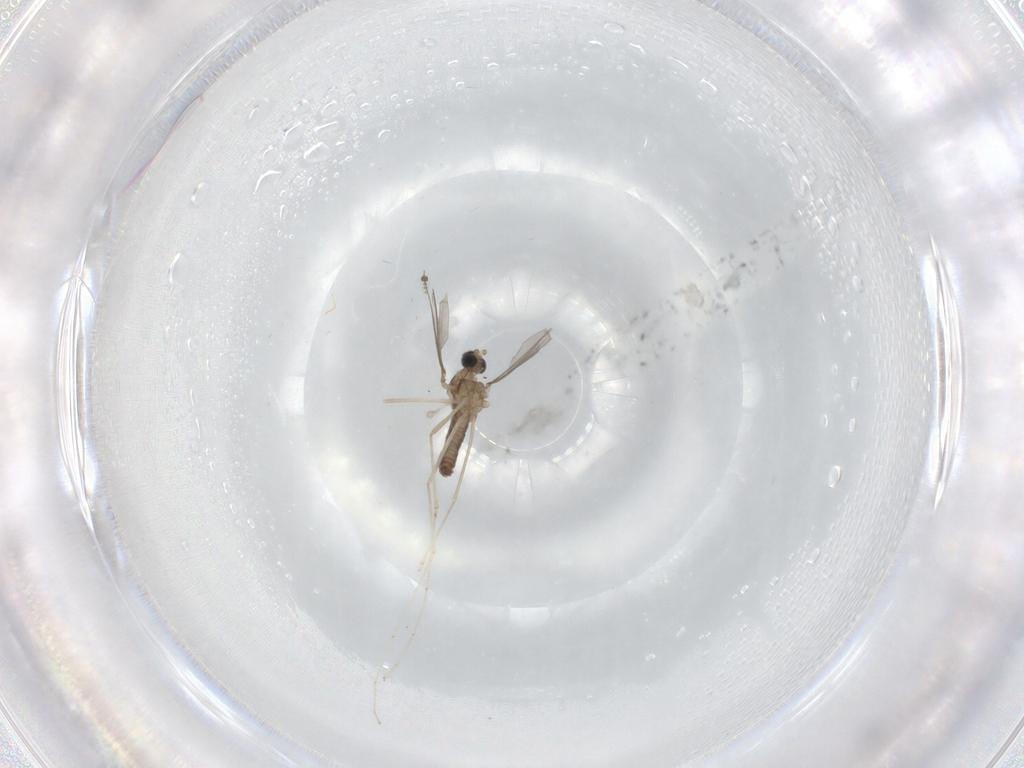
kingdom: Animalia
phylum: Arthropoda
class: Insecta
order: Diptera
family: Cecidomyiidae
